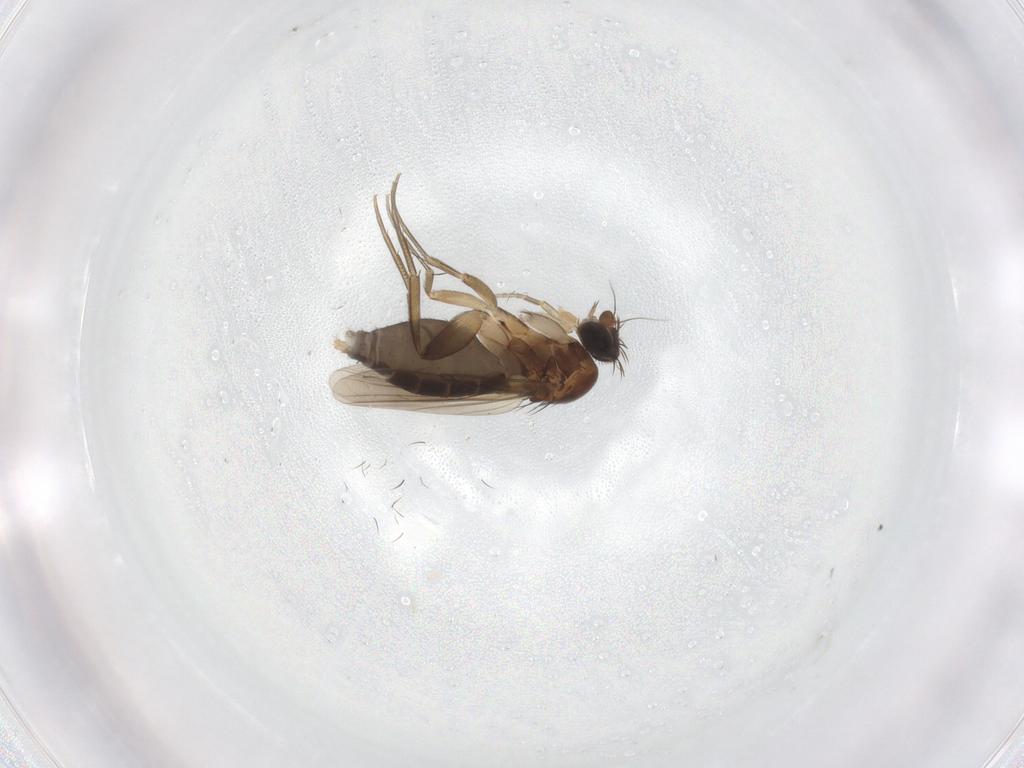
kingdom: Animalia
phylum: Arthropoda
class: Insecta
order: Diptera
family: Phoridae
